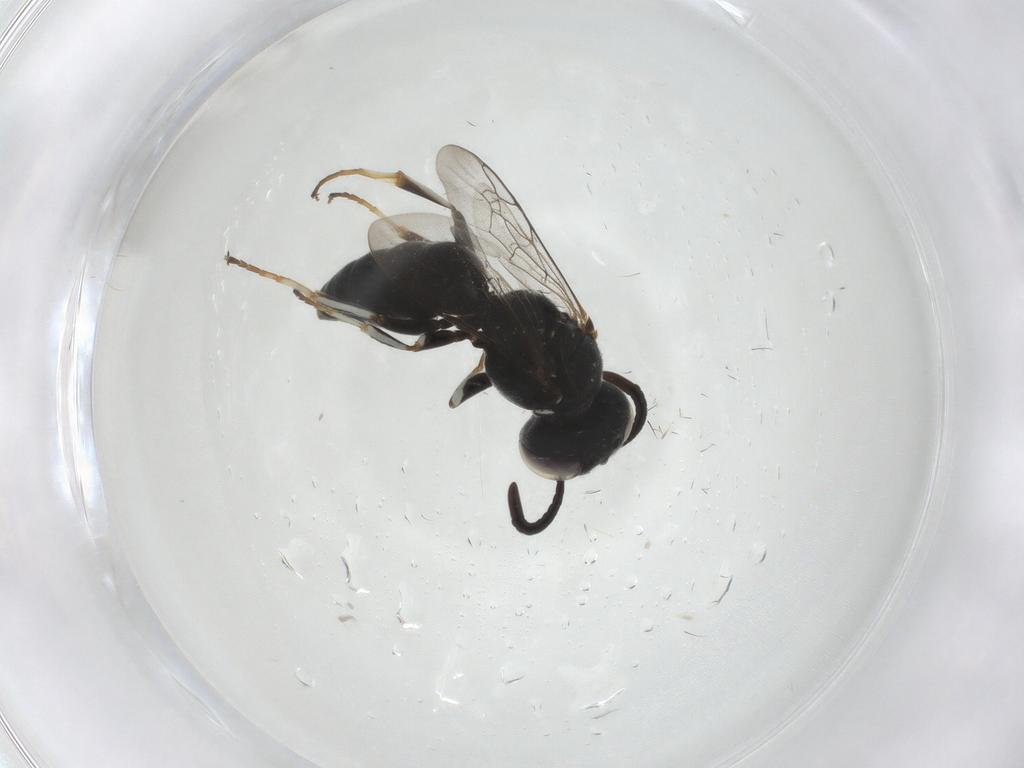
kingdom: Animalia
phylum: Arthropoda
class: Insecta
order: Hymenoptera
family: Crabronidae
